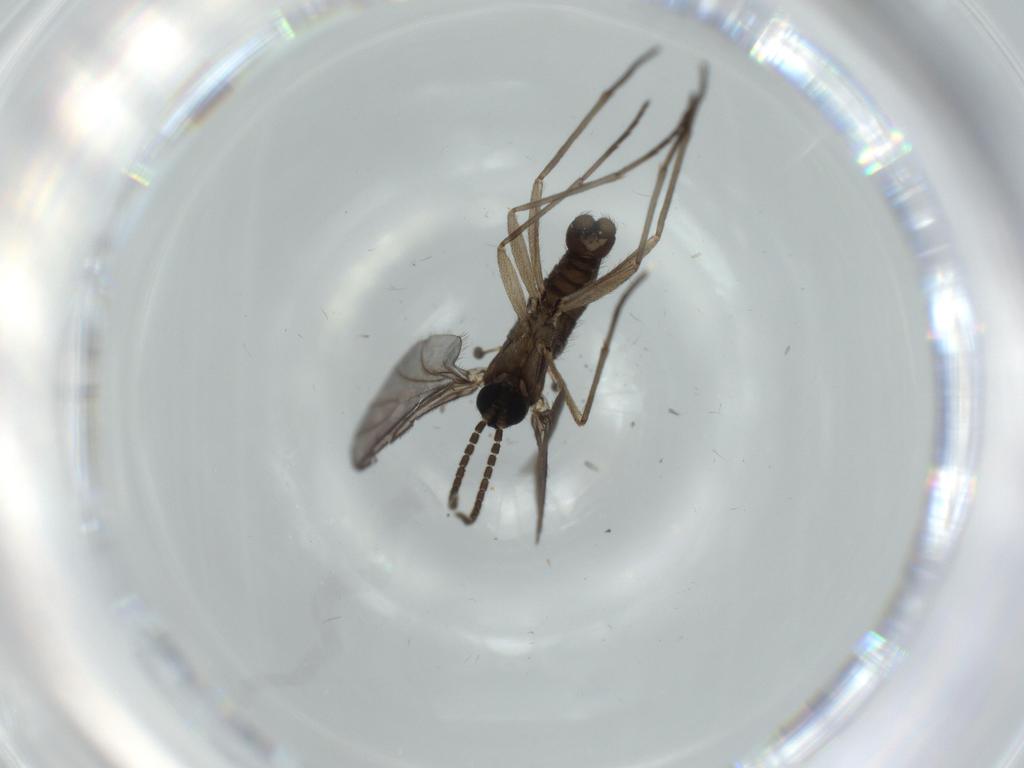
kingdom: Animalia
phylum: Arthropoda
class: Insecta
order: Diptera
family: Sciaridae
